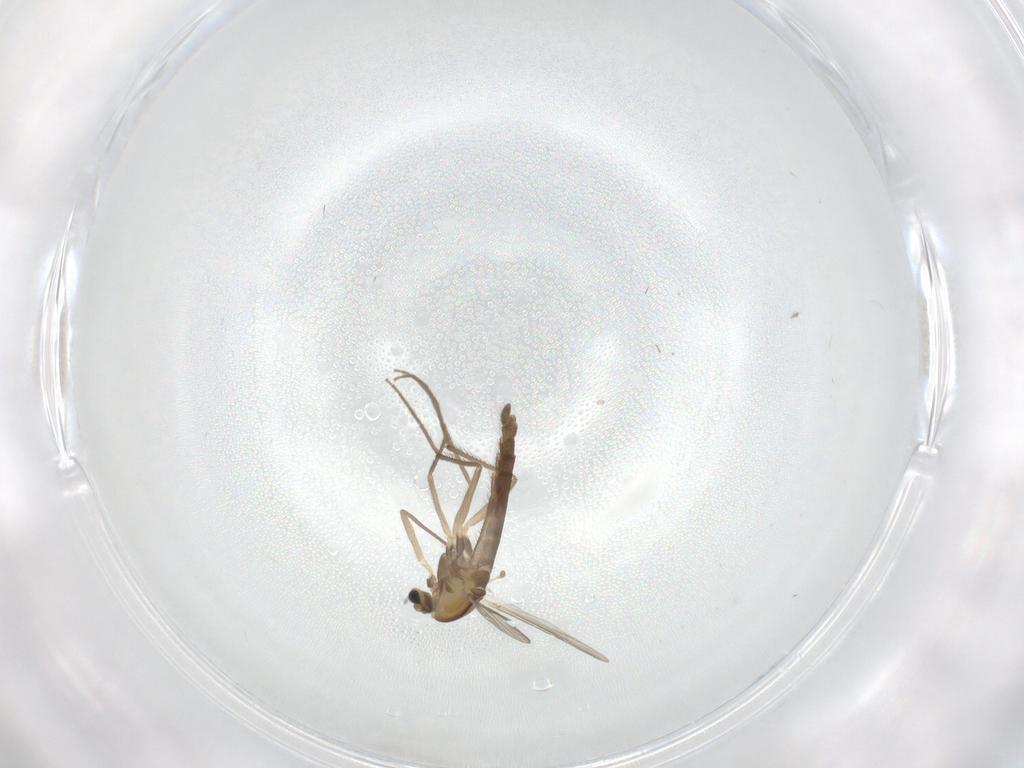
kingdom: Animalia
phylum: Arthropoda
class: Insecta
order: Diptera
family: Chironomidae
